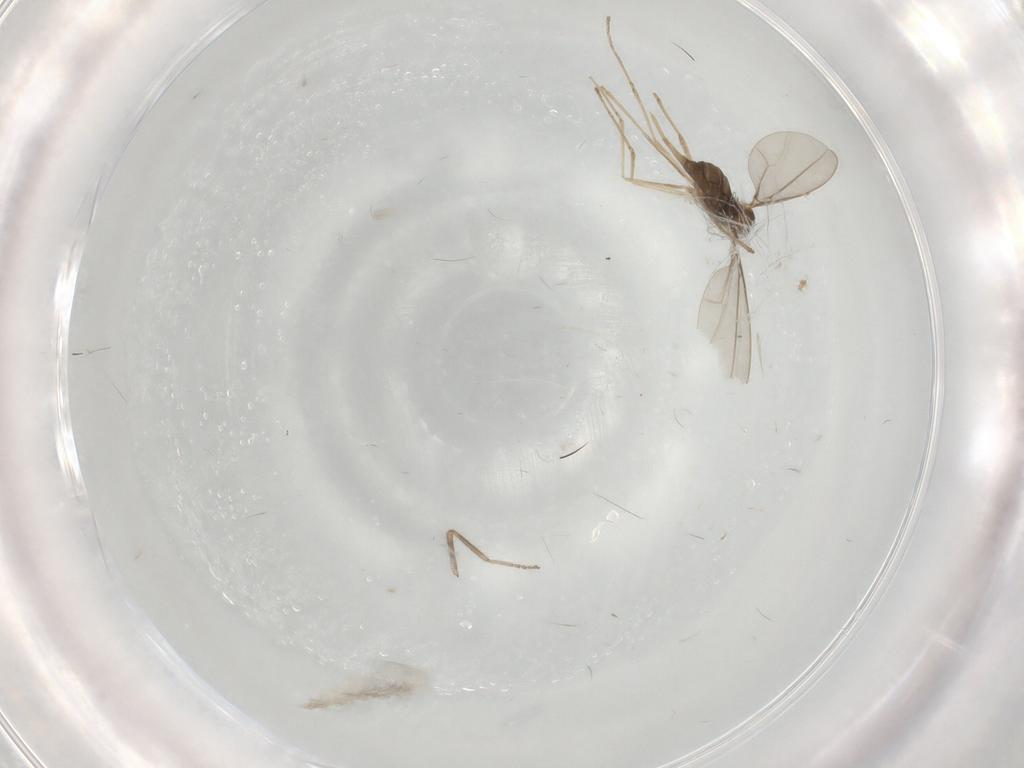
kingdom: Animalia
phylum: Arthropoda
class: Insecta
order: Diptera
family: Cecidomyiidae
